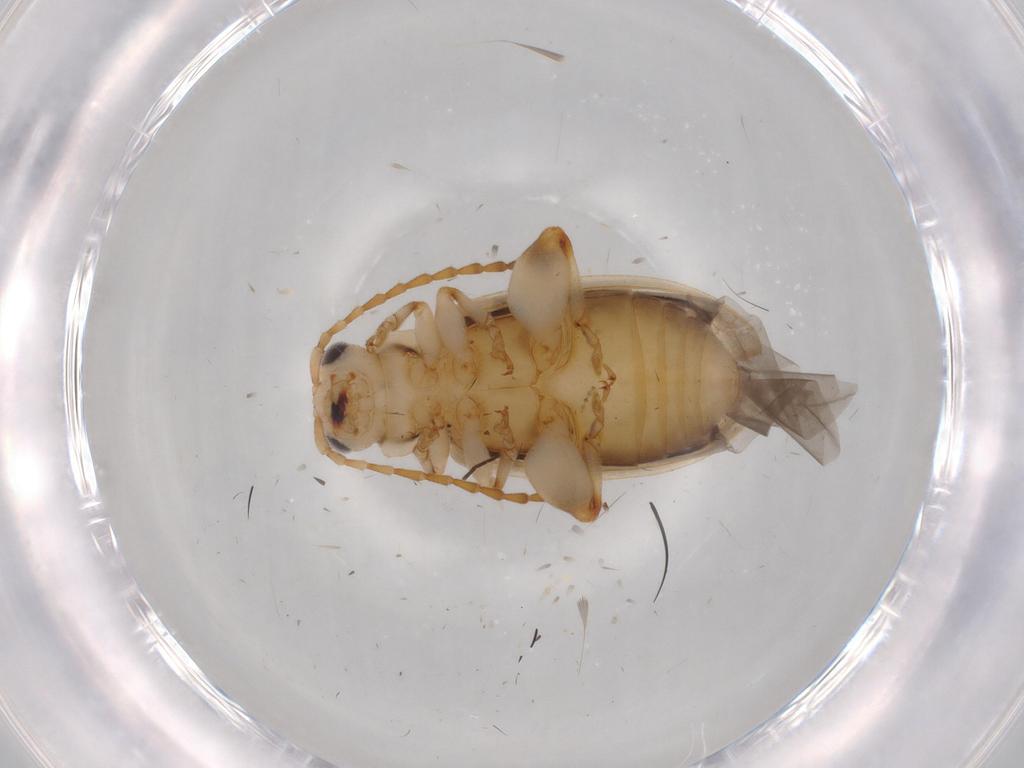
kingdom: Animalia
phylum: Arthropoda
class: Insecta
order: Coleoptera
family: Chrysomelidae
